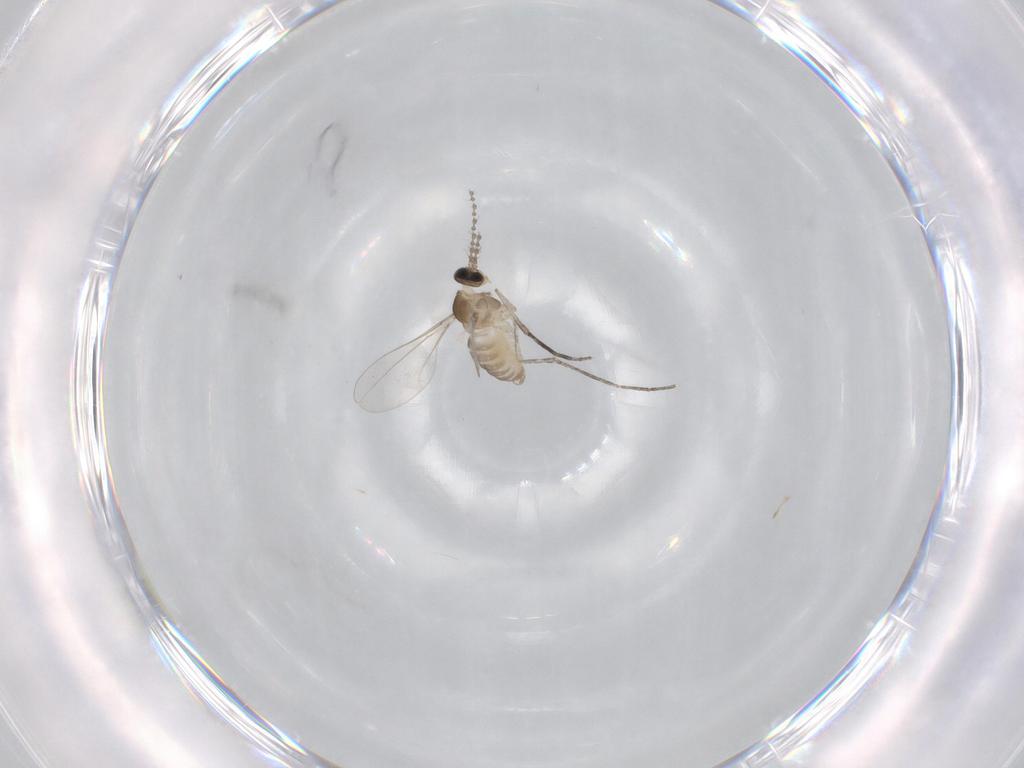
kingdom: Animalia
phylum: Arthropoda
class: Insecta
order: Diptera
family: Cecidomyiidae
